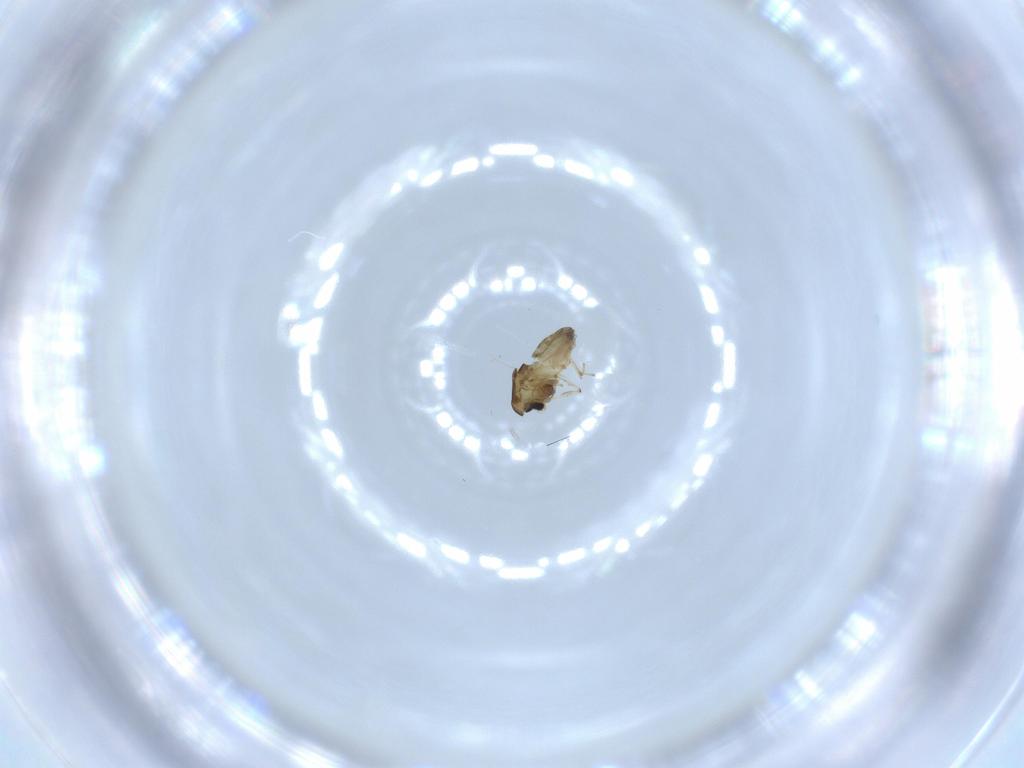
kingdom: Animalia
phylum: Arthropoda
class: Insecta
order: Diptera
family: Chironomidae
